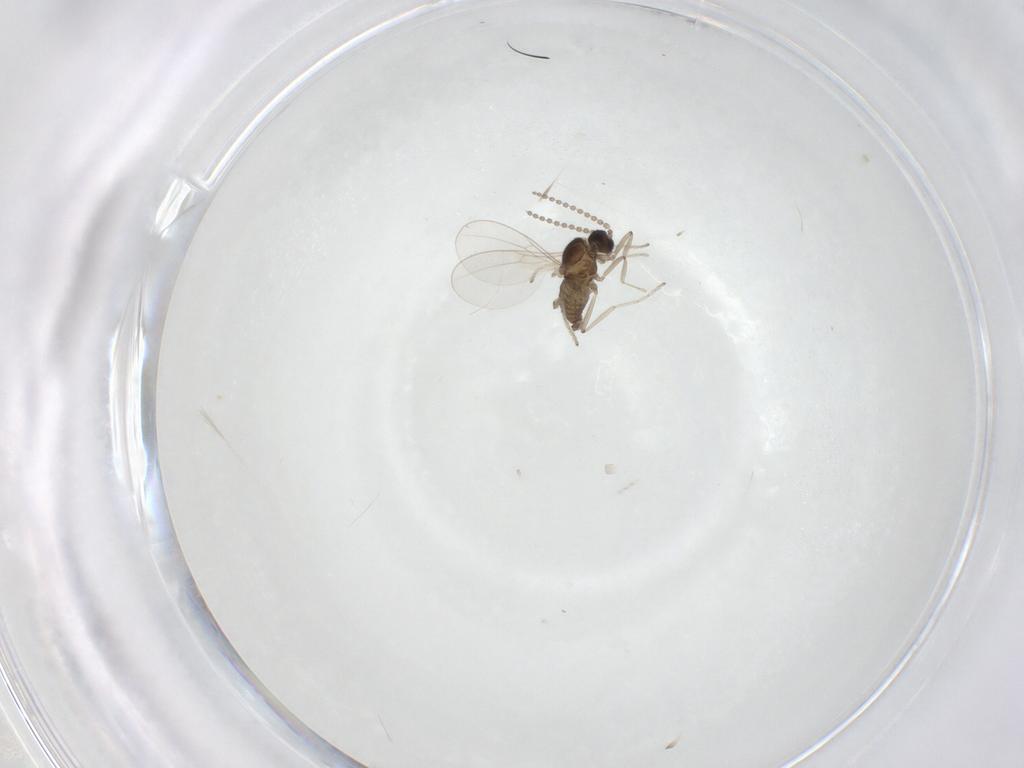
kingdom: Animalia
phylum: Arthropoda
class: Insecta
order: Diptera
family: Cecidomyiidae
